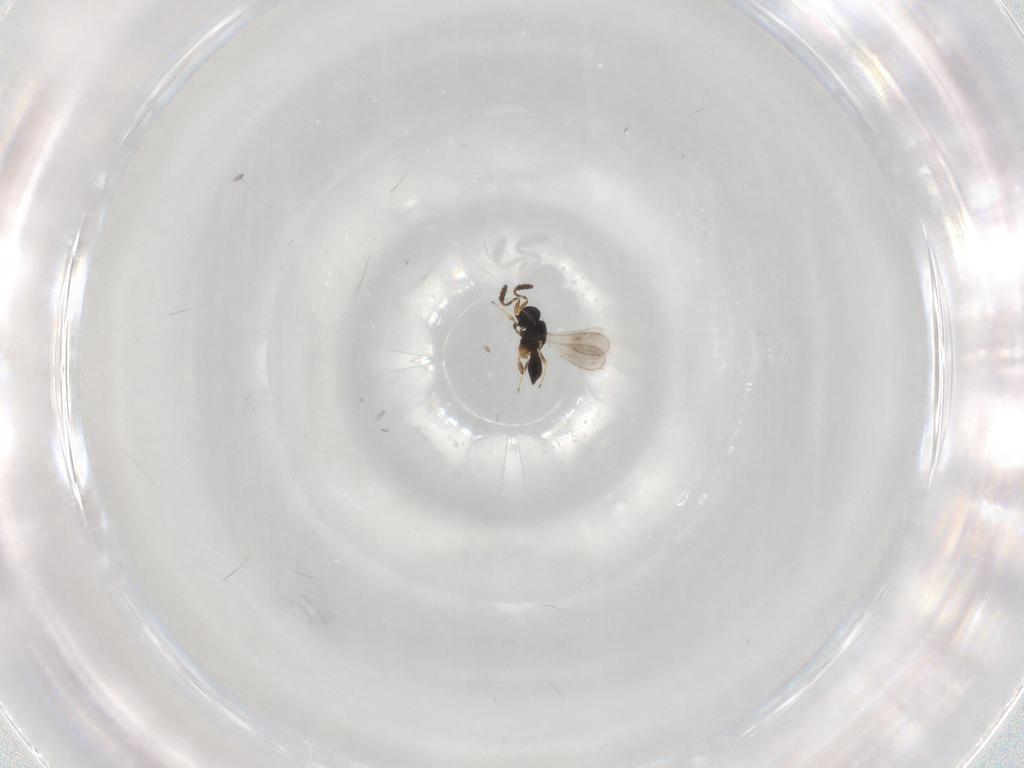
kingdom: Animalia
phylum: Arthropoda
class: Insecta
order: Hymenoptera
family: Scelionidae
